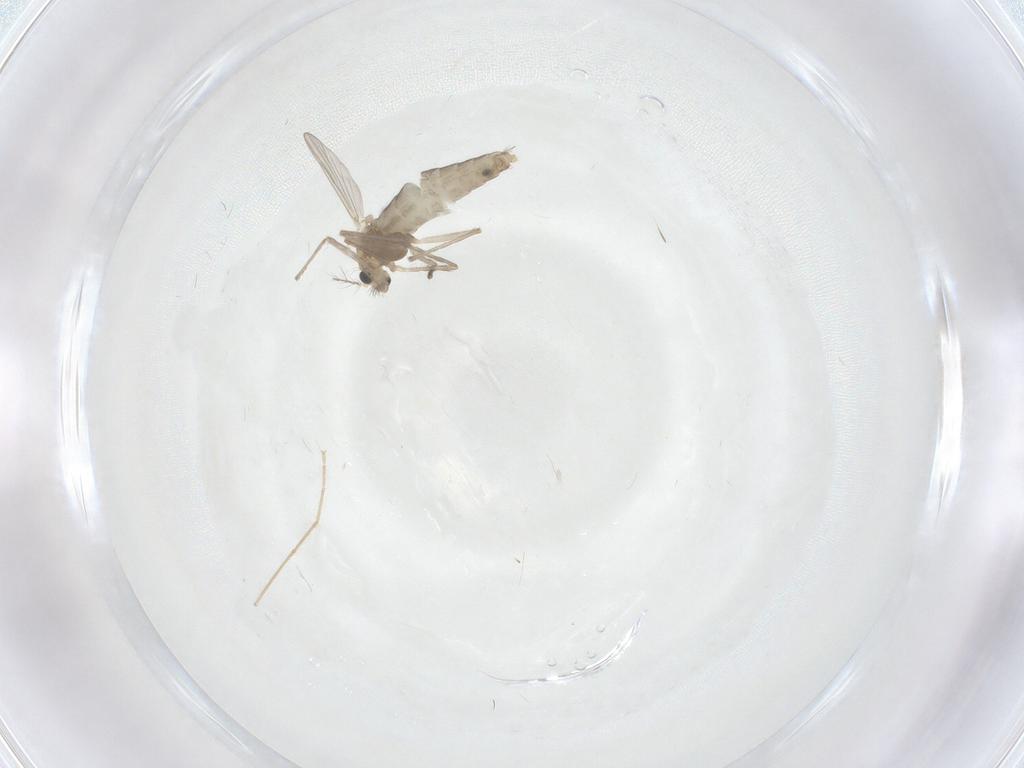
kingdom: Animalia
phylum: Arthropoda
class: Insecta
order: Diptera
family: Chironomidae
